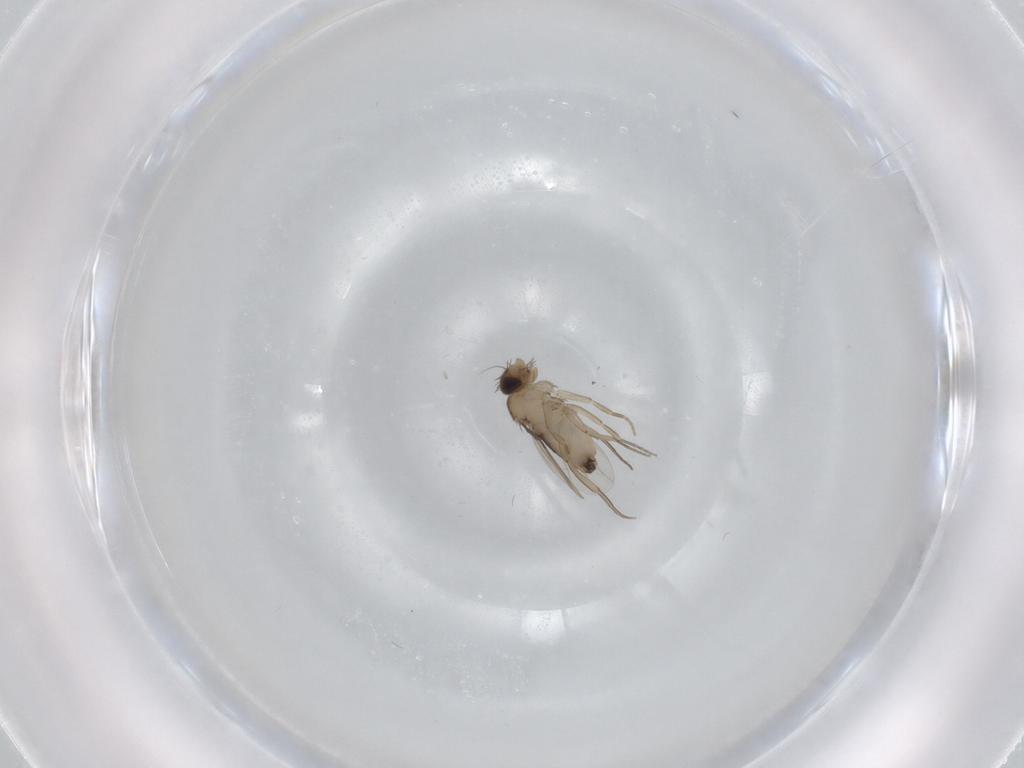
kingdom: Animalia
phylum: Arthropoda
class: Insecta
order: Diptera
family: Phoridae
